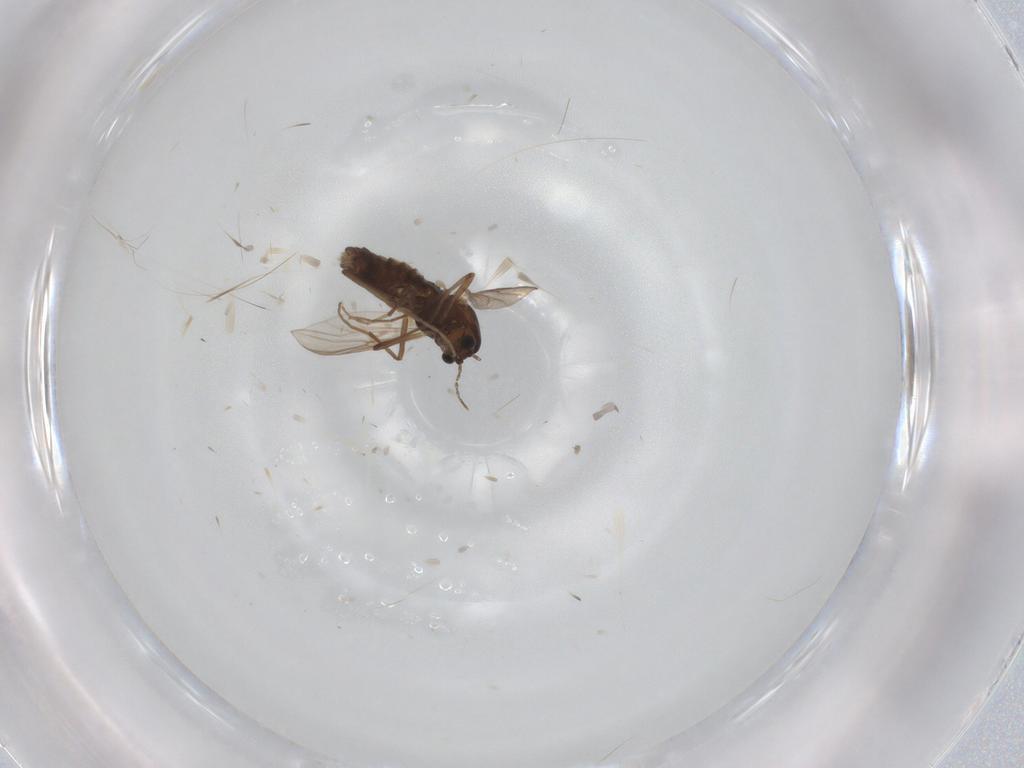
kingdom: Animalia
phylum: Arthropoda
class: Insecta
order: Diptera
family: Chironomidae
